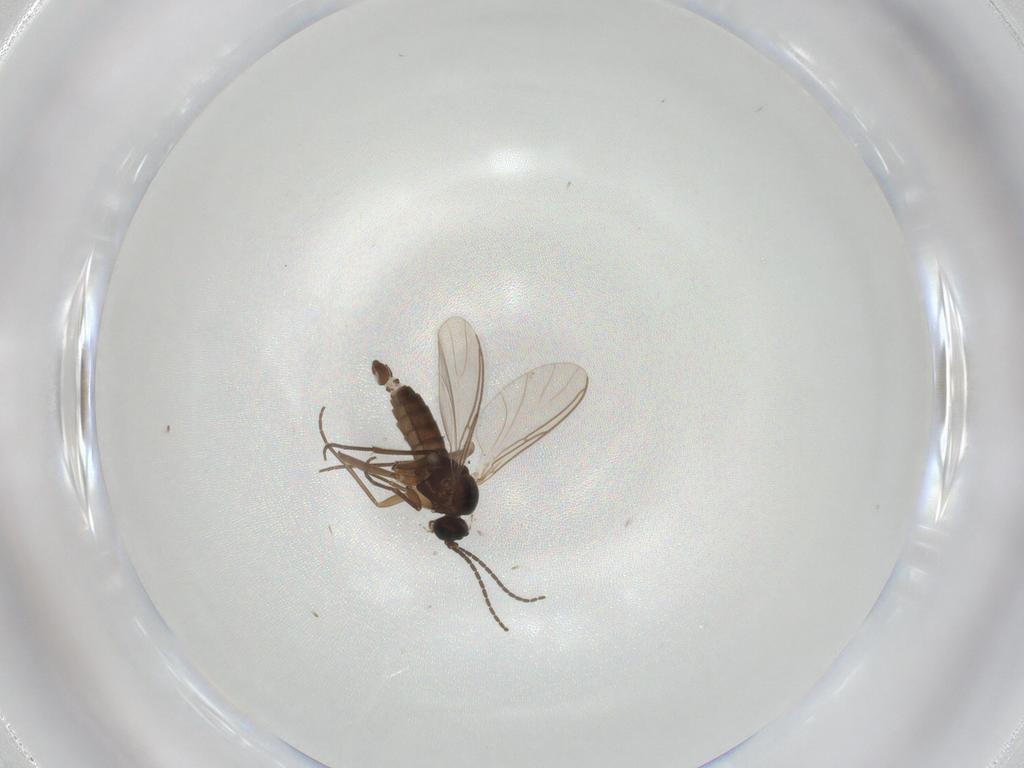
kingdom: Animalia
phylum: Arthropoda
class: Insecta
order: Diptera
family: Sciaridae
